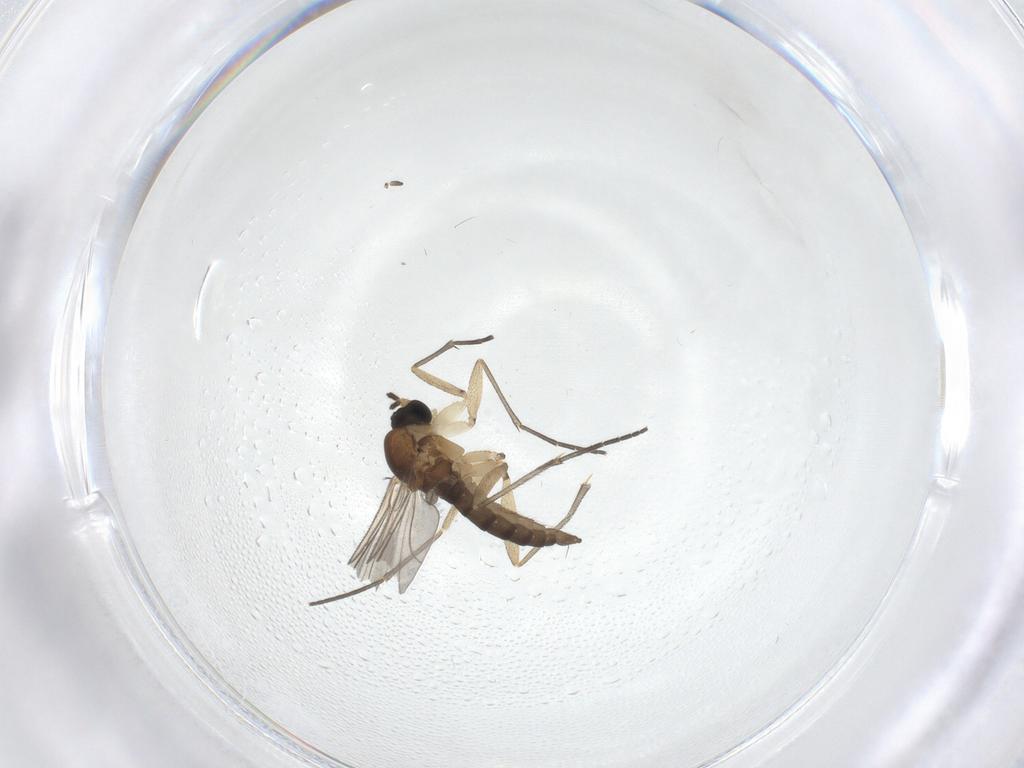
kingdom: Animalia
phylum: Arthropoda
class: Insecta
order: Diptera
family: Sciaridae
